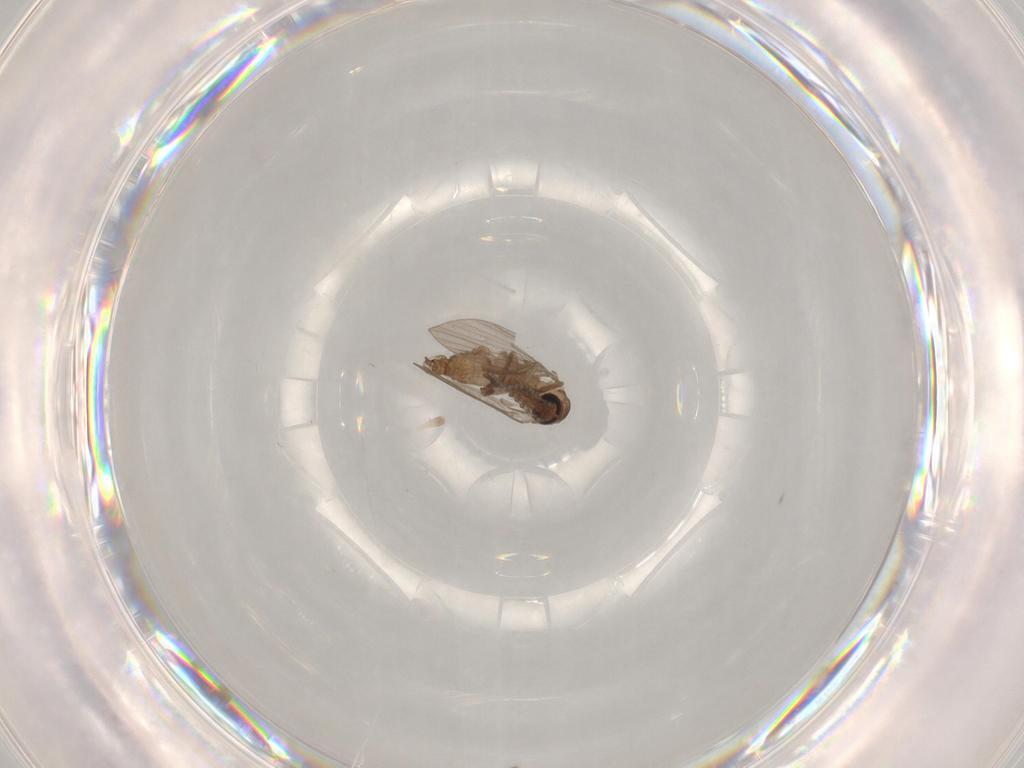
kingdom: Animalia
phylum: Arthropoda
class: Insecta
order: Diptera
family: Psychodidae
